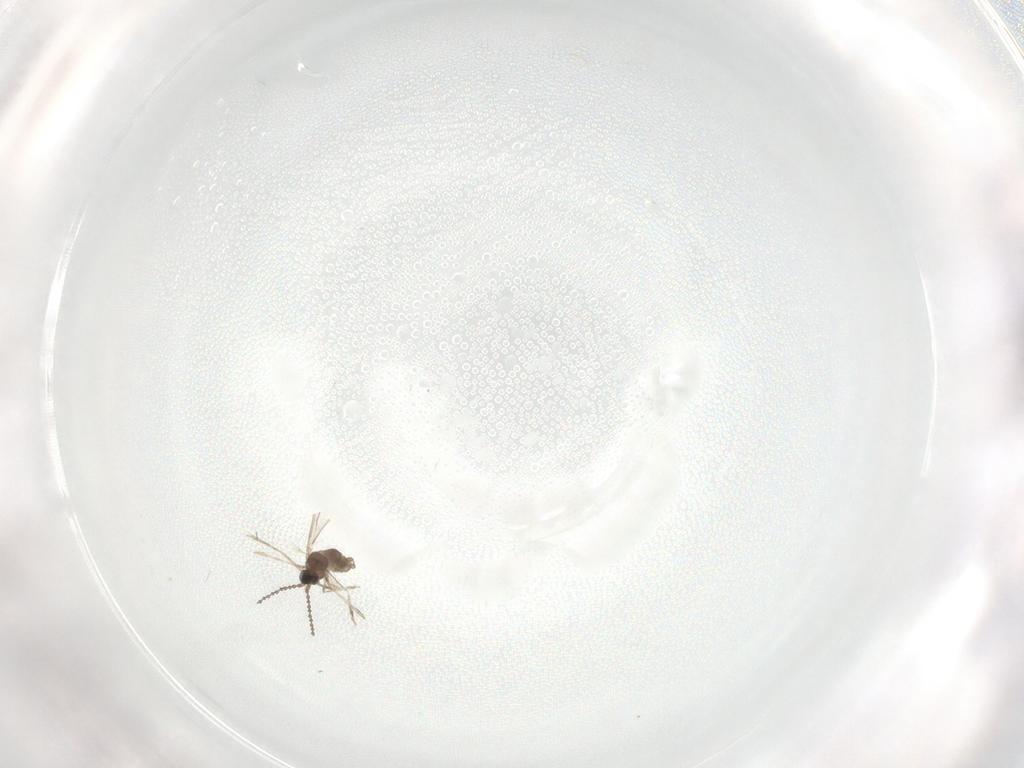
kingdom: Animalia
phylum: Arthropoda
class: Insecta
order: Diptera
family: Cecidomyiidae
